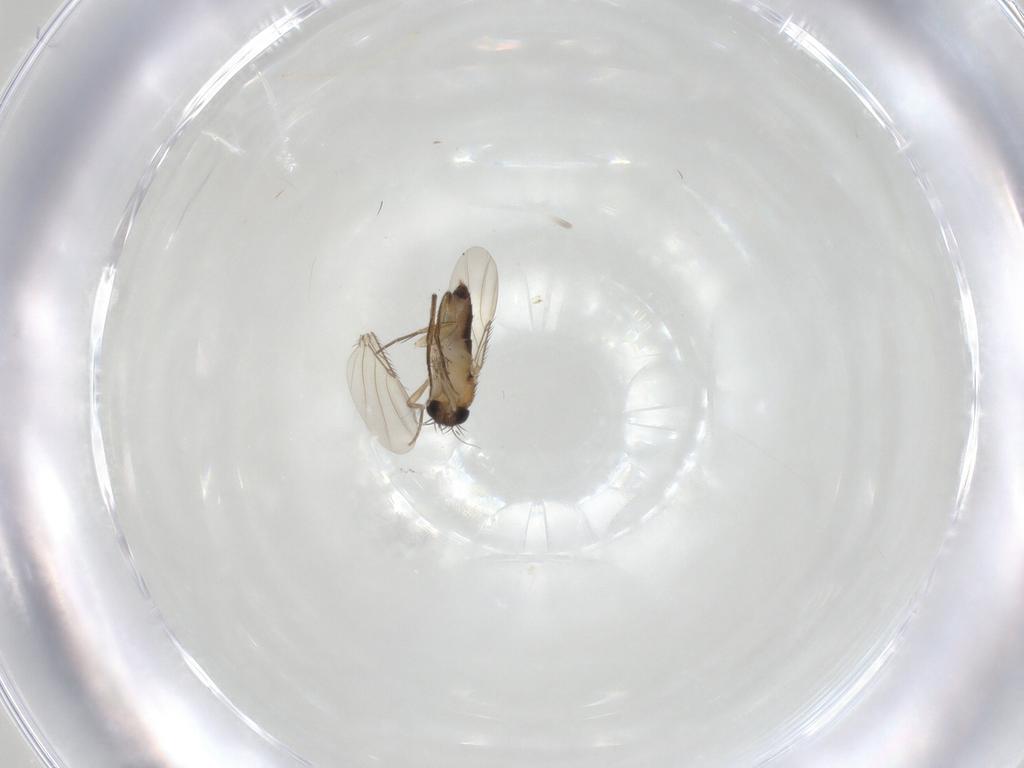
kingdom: Animalia
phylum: Arthropoda
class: Insecta
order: Diptera
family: Phoridae
